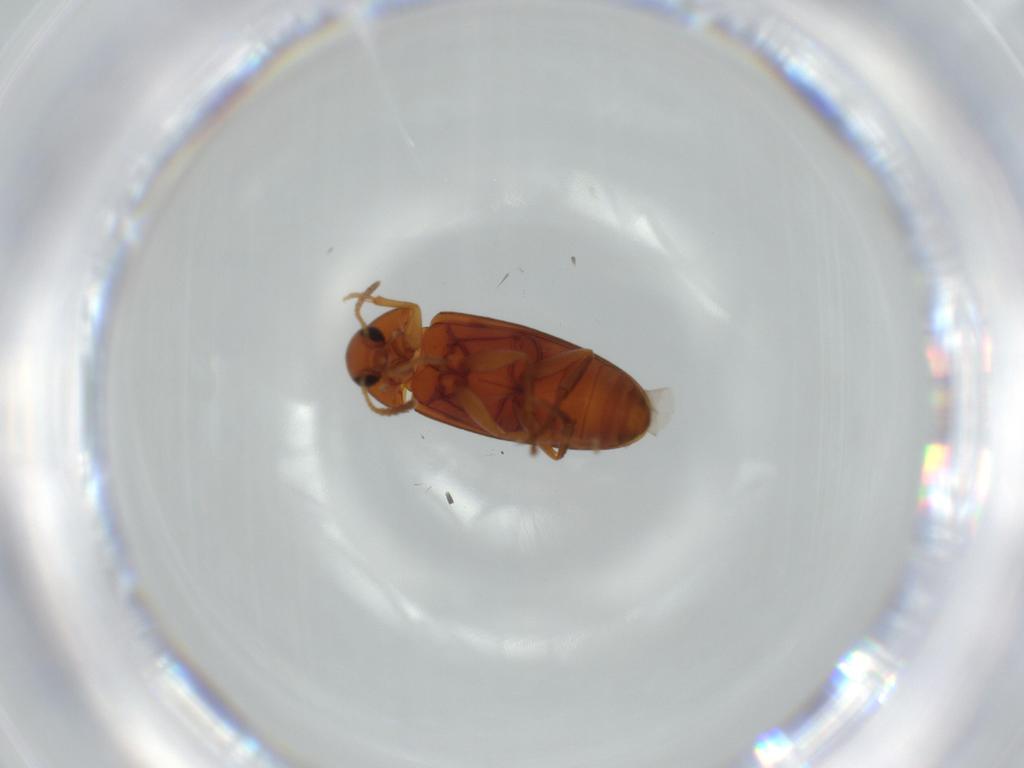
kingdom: Animalia
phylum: Arthropoda
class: Insecta
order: Coleoptera
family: Scraptiidae
